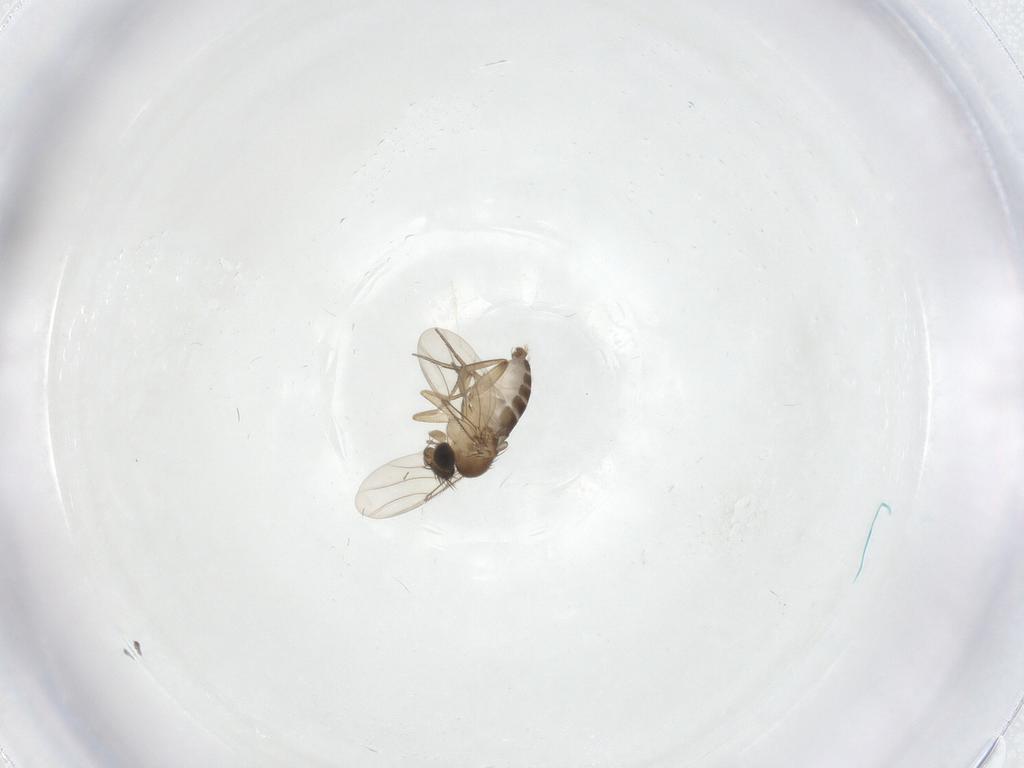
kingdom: Animalia
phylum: Arthropoda
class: Insecta
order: Diptera
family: Phoridae
